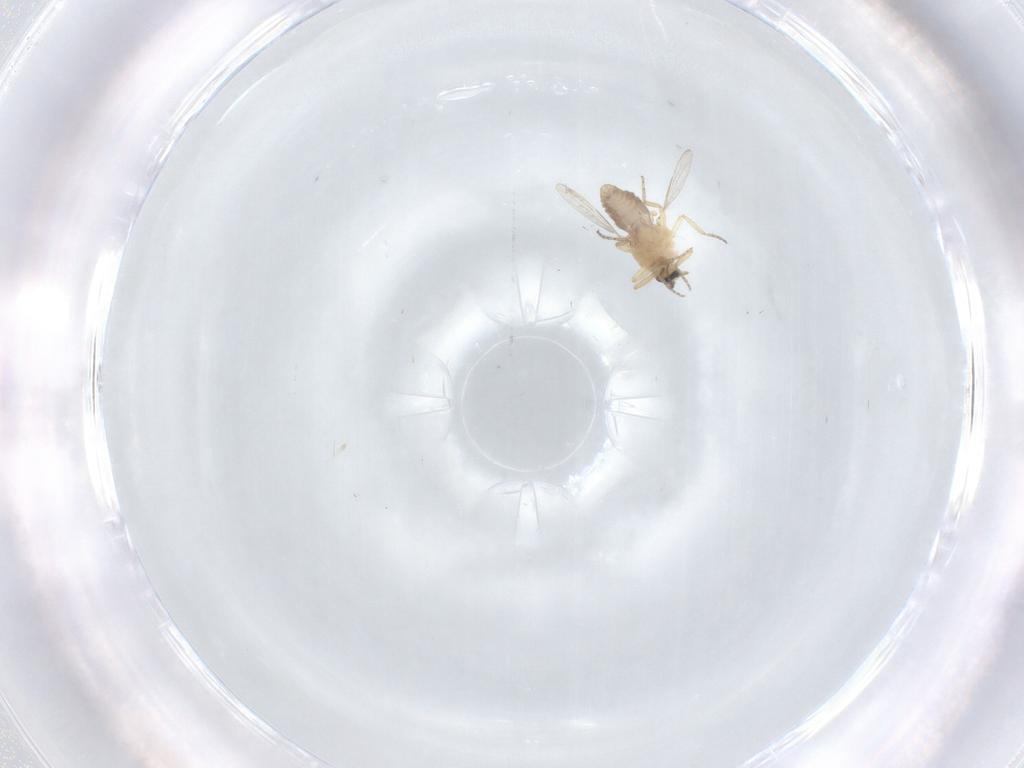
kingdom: Animalia
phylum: Arthropoda
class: Insecta
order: Diptera
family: Ceratopogonidae
